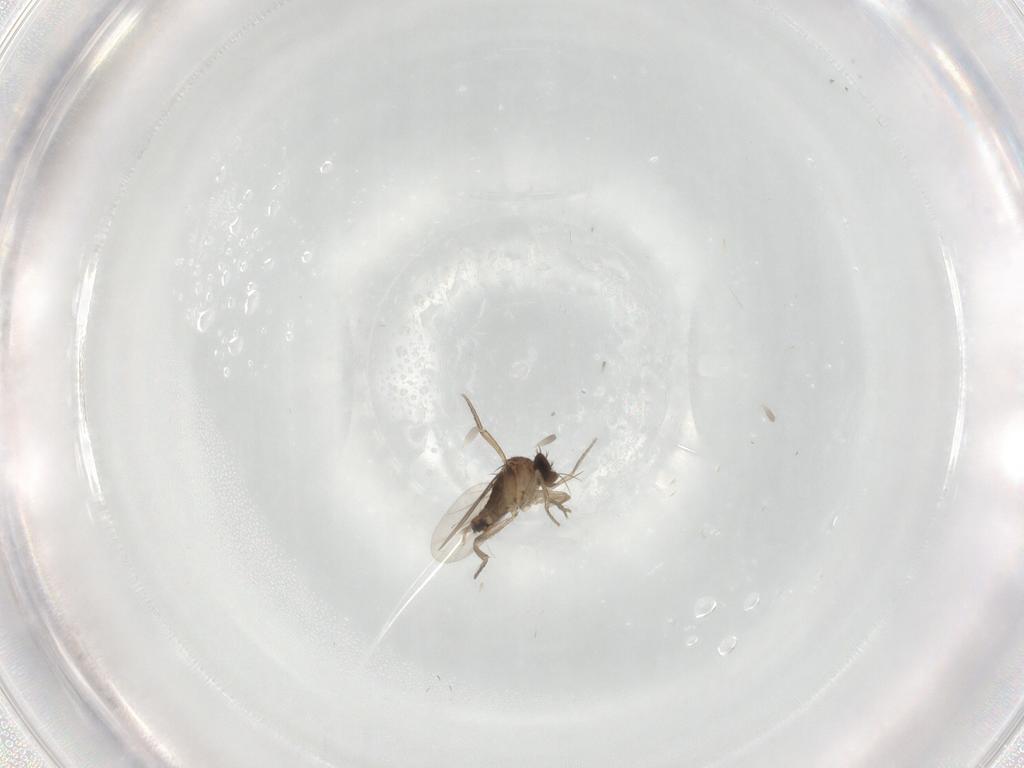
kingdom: Animalia
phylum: Arthropoda
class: Insecta
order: Diptera
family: Phoridae
